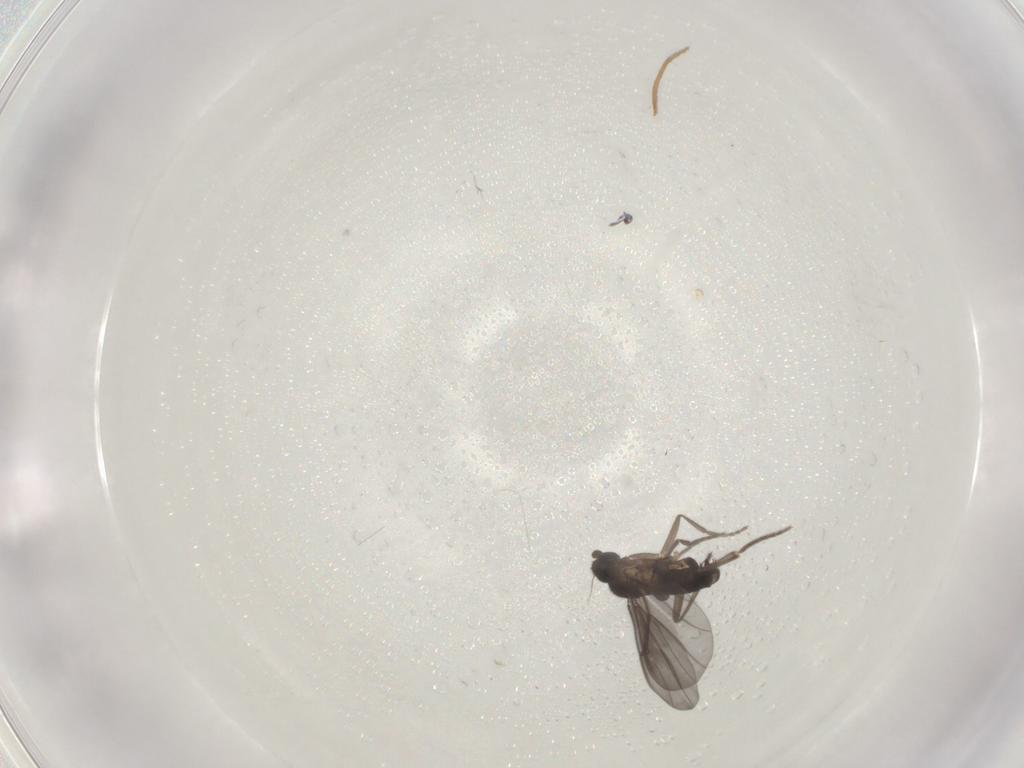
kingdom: Animalia
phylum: Arthropoda
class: Insecta
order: Diptera
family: Phoridae
